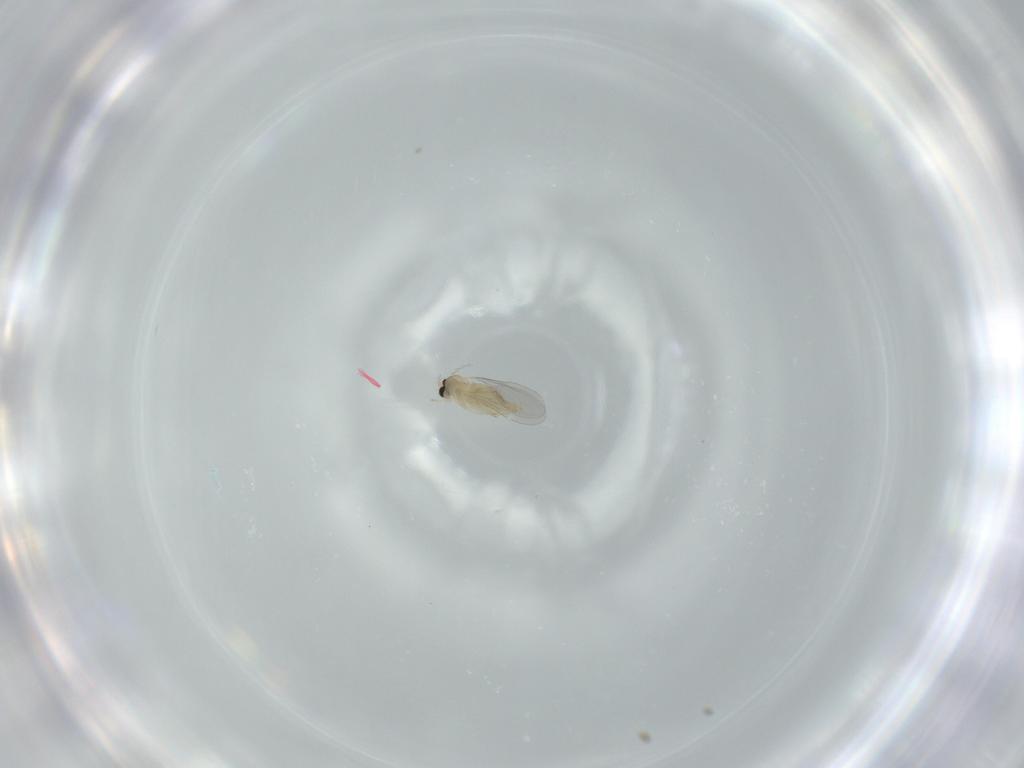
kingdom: Animalia
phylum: Arthropoda
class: Insecta
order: Diptera
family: Cecidomyiidae
